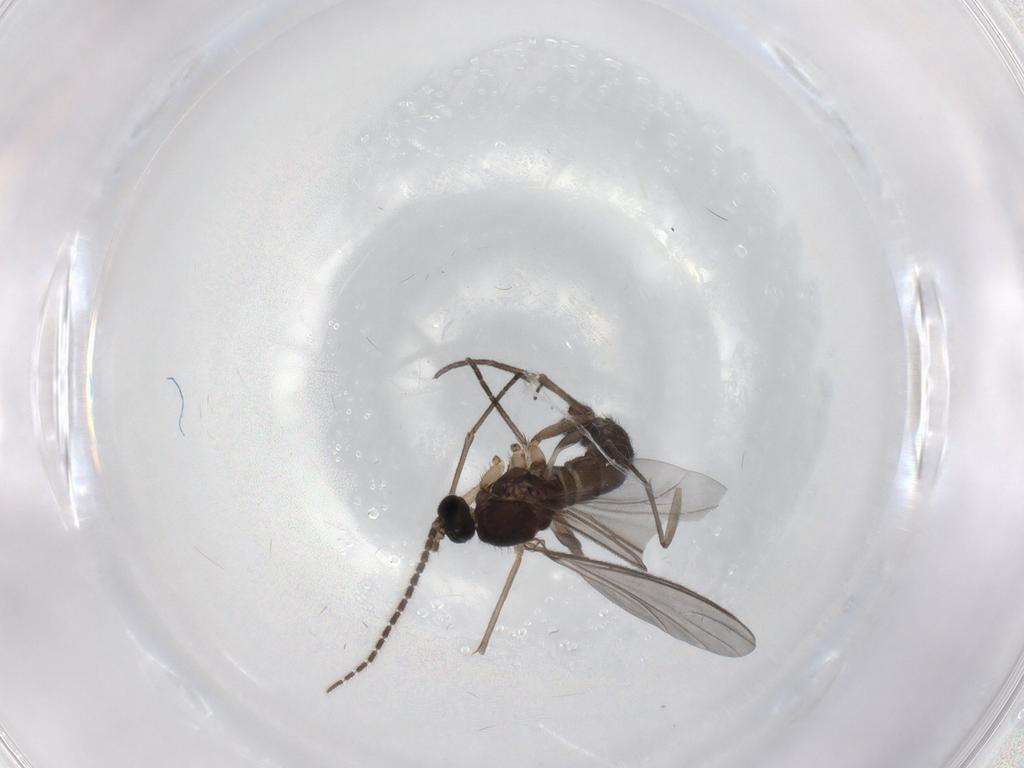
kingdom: Animalia
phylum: Arthropoda
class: Insecta
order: Diptera
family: Sciaridae
